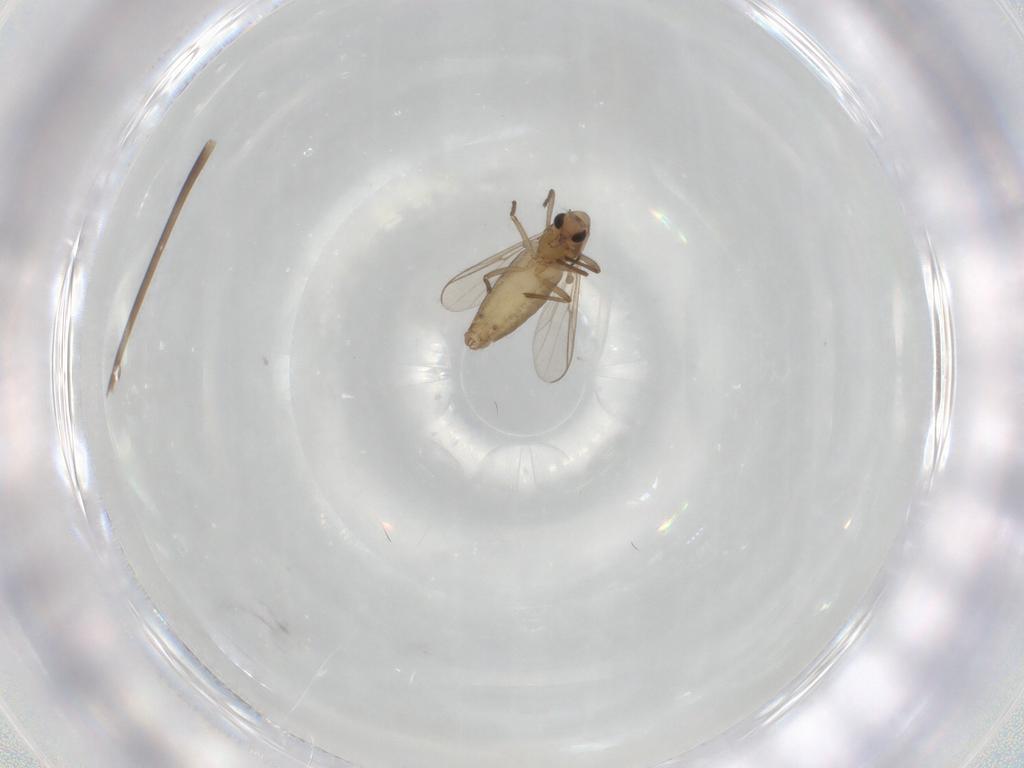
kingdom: Animalia
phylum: Arthropoda
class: Insecta
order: Diptera
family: Chironomidae
